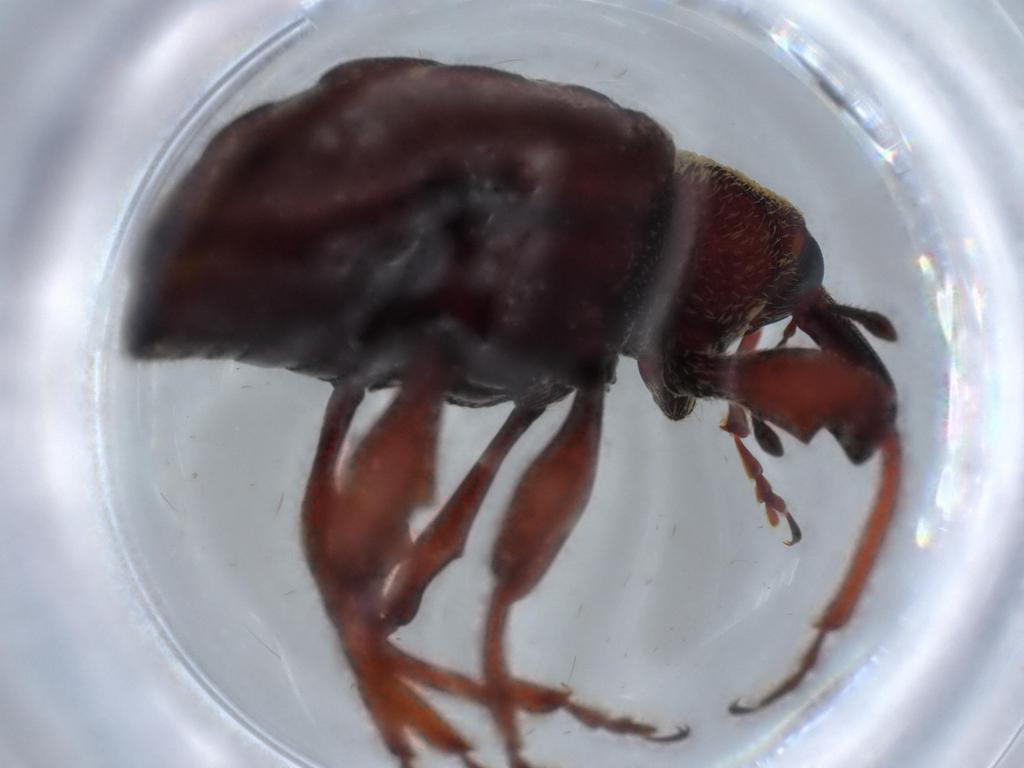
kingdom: Animalia
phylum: Arthropoda
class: Insecta
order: Coleoptera
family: Curculionidae
